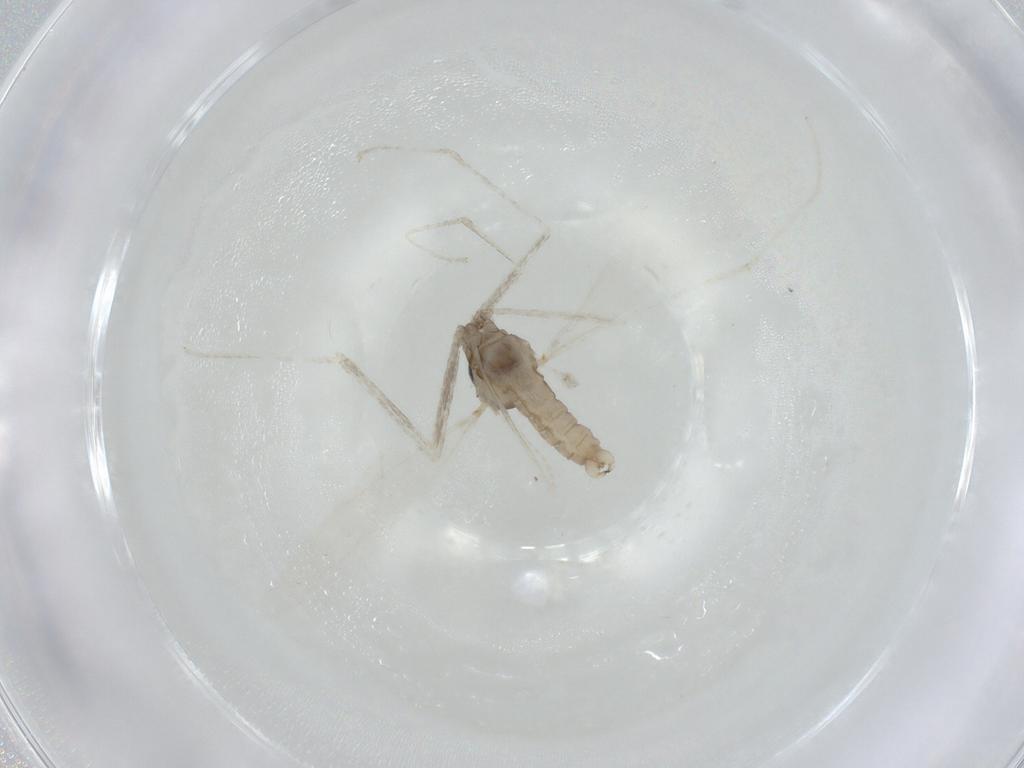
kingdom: Animalia
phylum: Arthropoda
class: Insecta
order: Diptera
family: Cecidomyiidae
